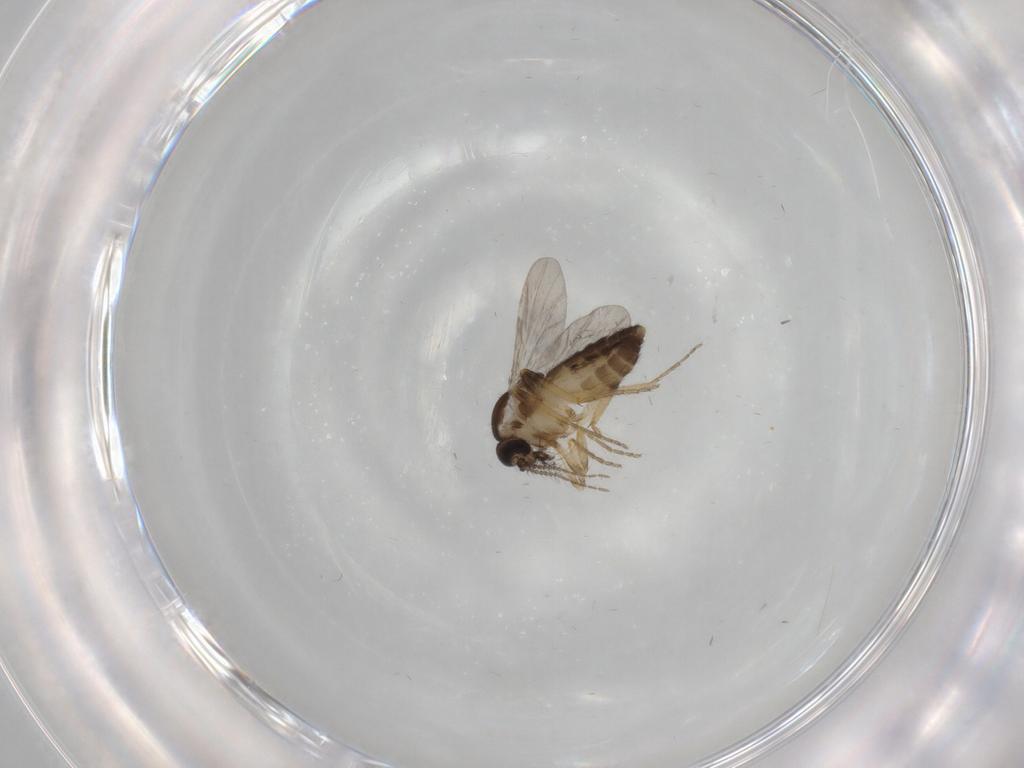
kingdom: Animalia
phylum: Arthropoda
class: Insecta
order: Diptera
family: Ceratopogonidae
